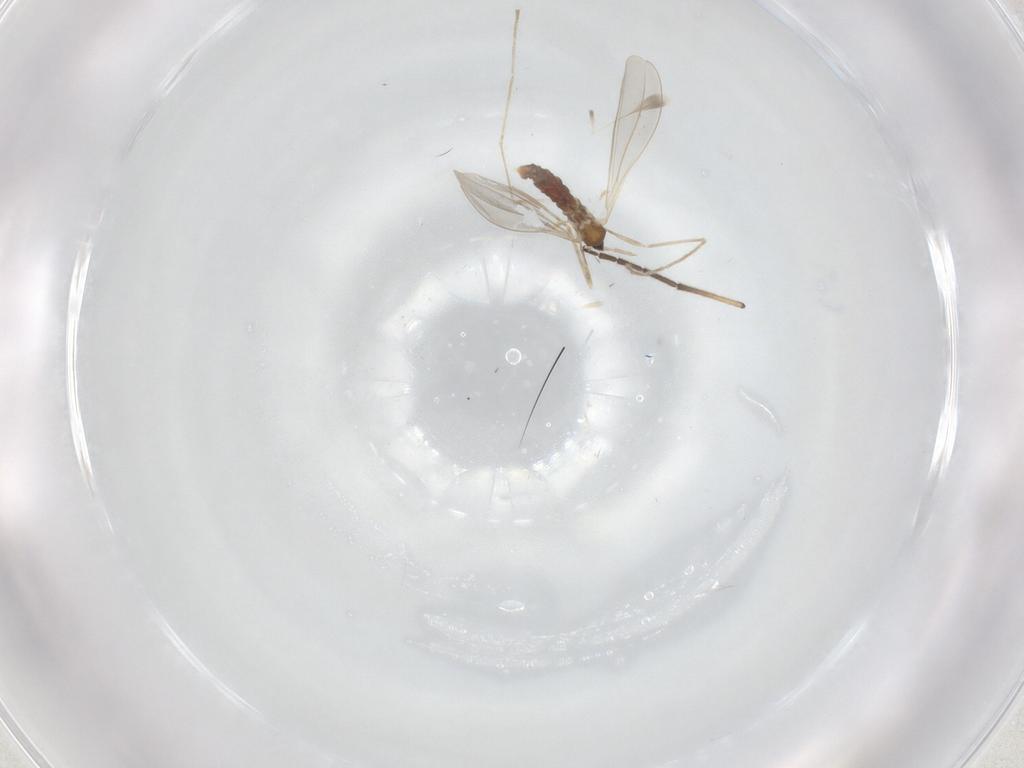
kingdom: Animalia
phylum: Arthropoda
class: Insecta
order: Diptera
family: Cecidomyiidae
